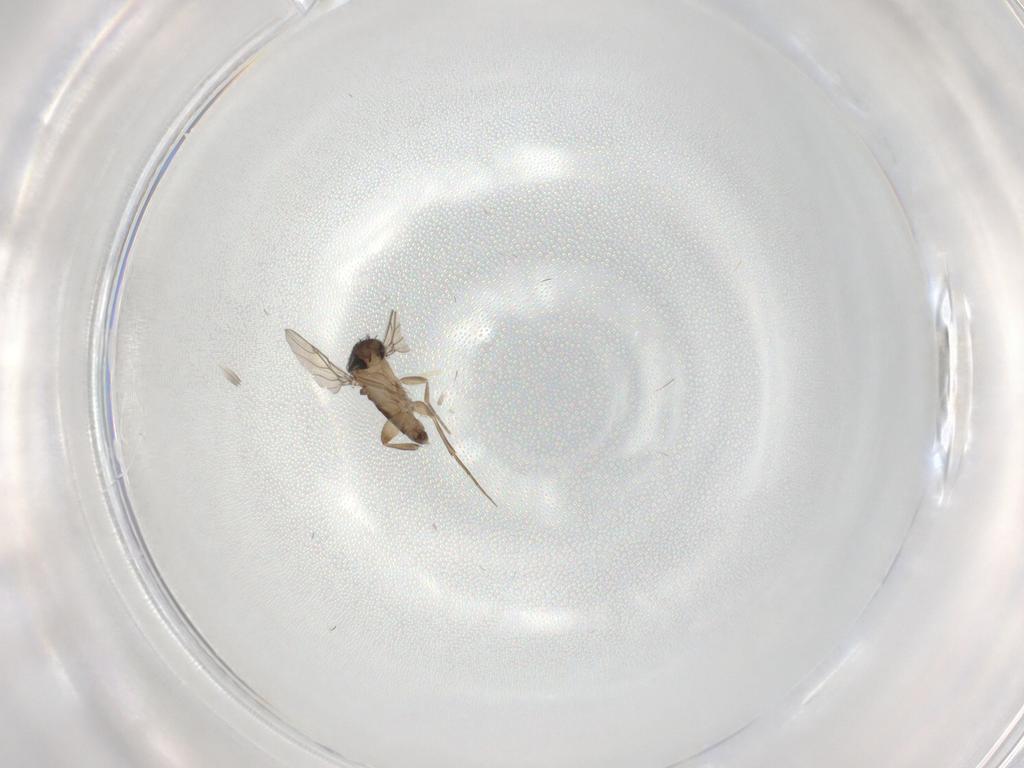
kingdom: Animalia
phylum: Arthropoda
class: Insecta
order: Diptera
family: Phoridae
